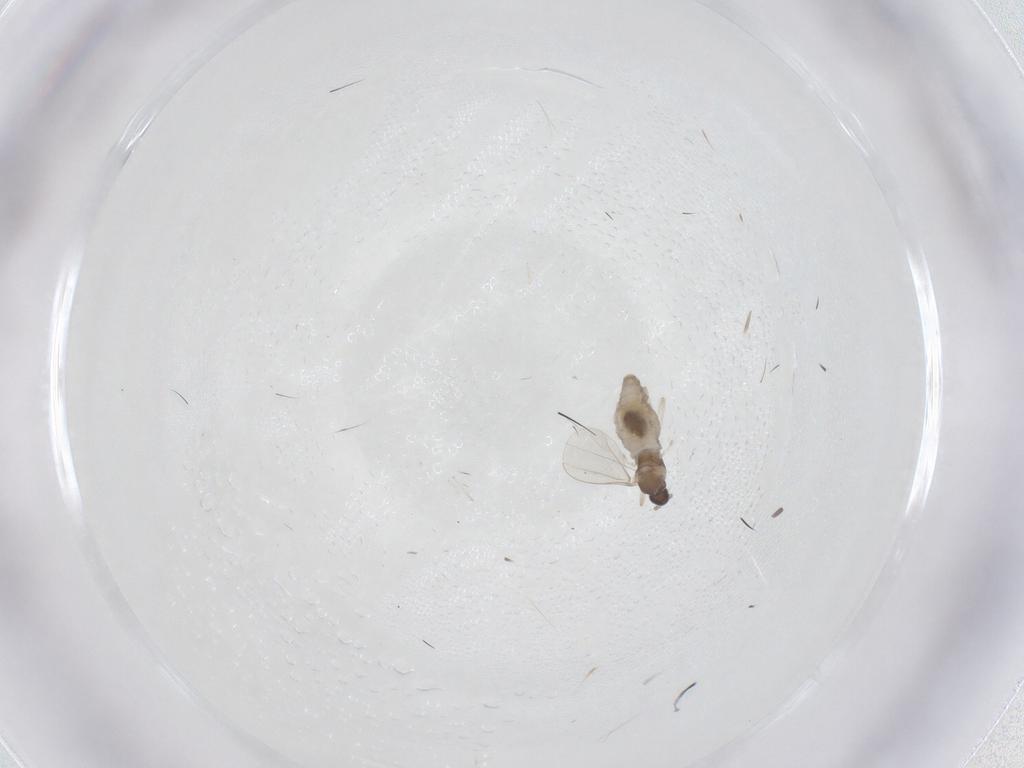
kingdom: Animalia
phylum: Arthropoda
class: Insecta
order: Diptera
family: Cecidomyiidae
